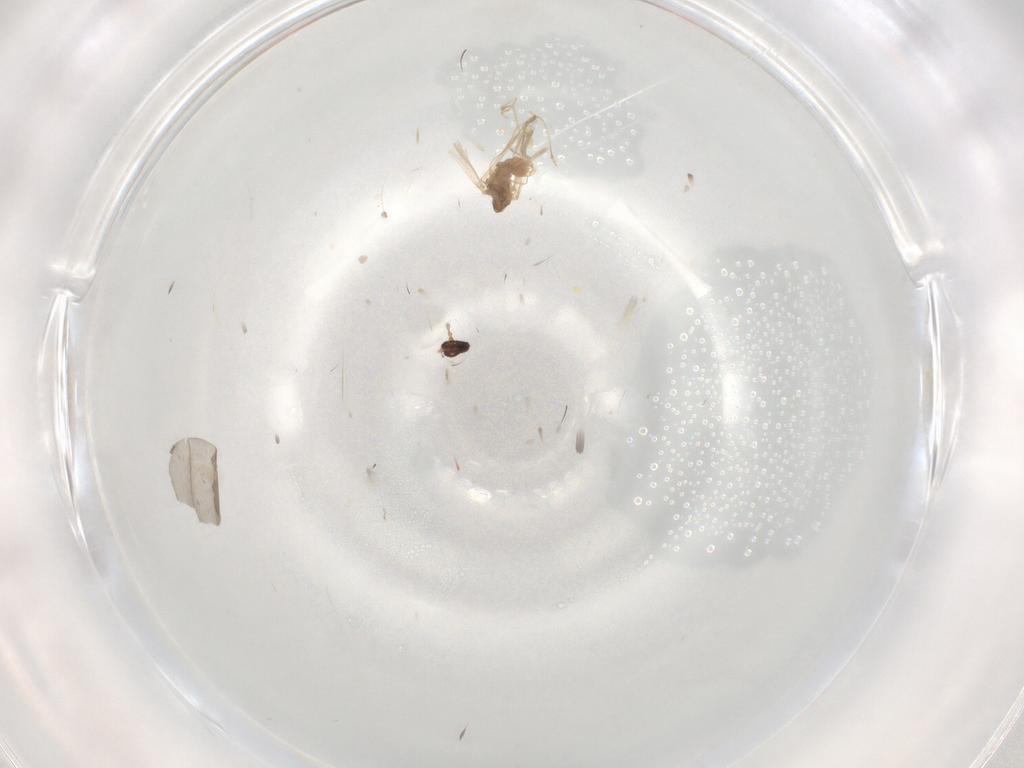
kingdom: Animalia
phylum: Arthropoda
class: Insecta
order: Diptera
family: Cecidomyiidae
